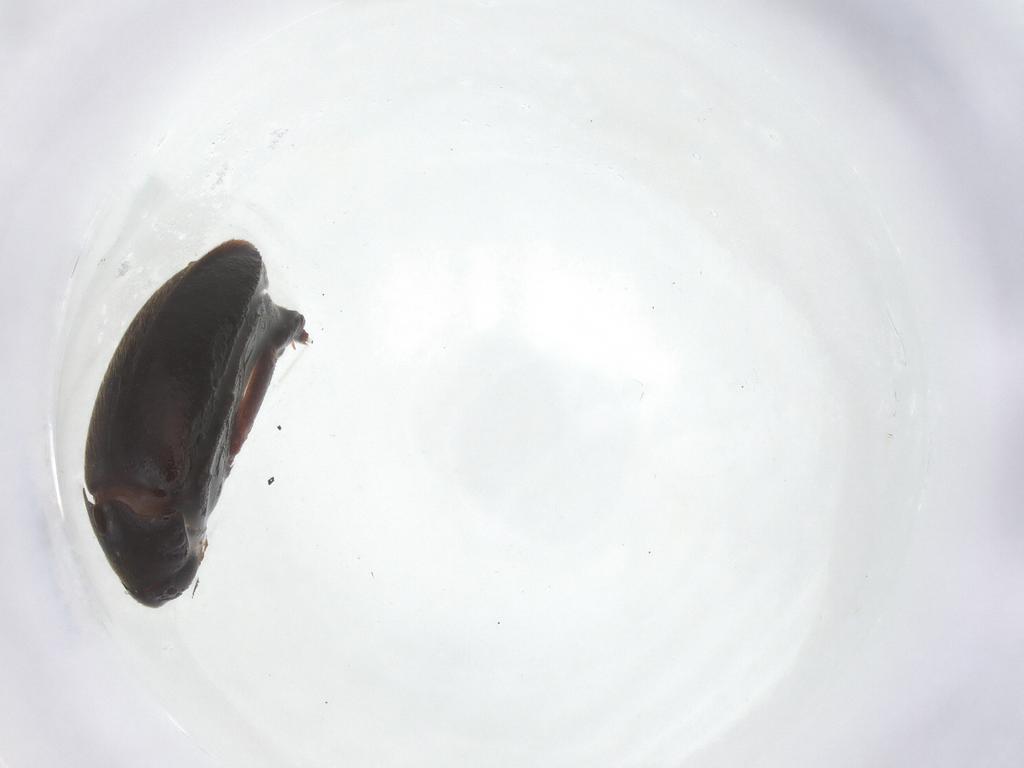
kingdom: Animalia
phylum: Arthropoda
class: Insecta
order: Coleoptera
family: Mordellidae
